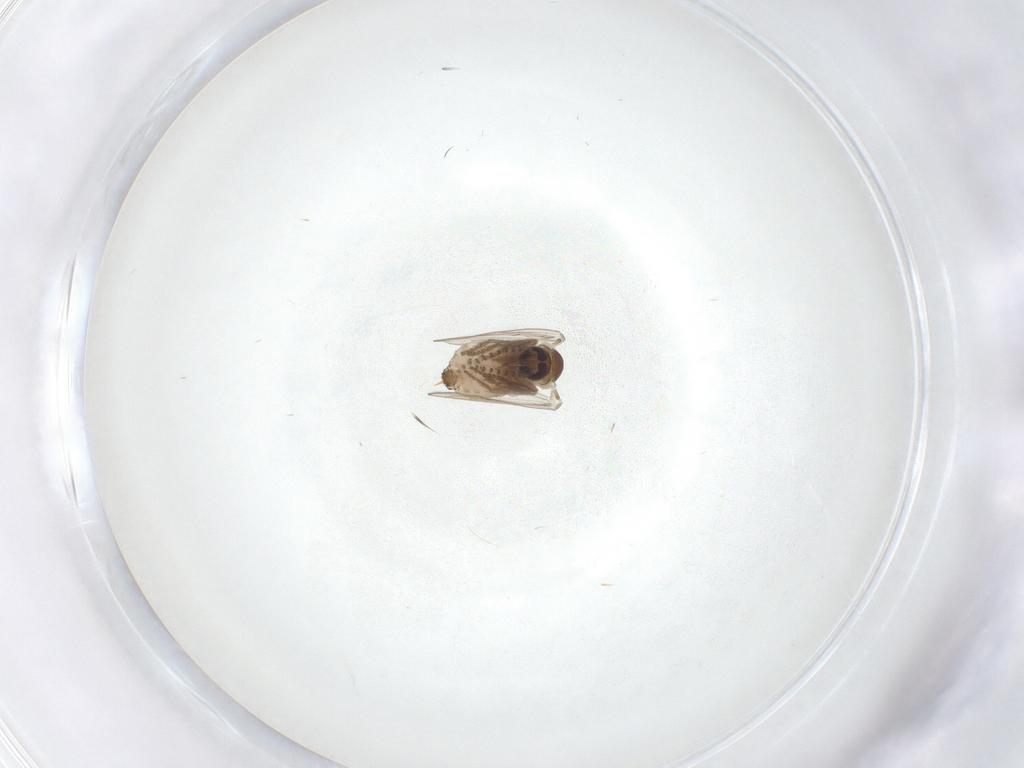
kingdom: Animalia
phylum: Arthropoda
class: Insecta
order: Diptera
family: Psychodidae
